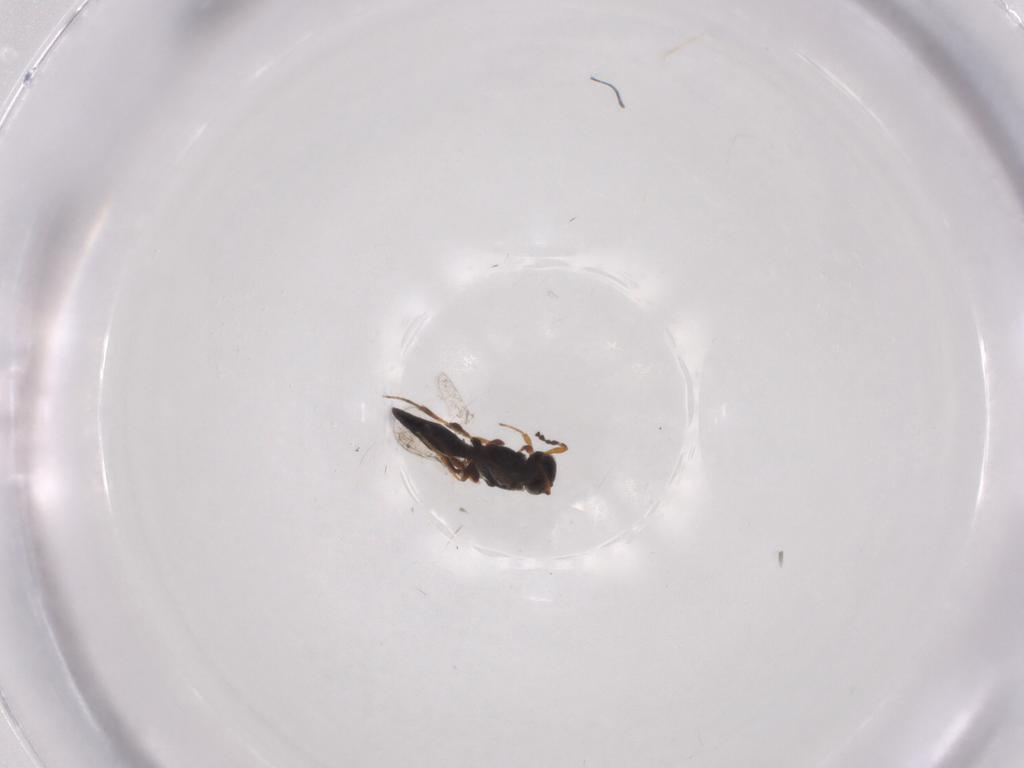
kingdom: Animalia
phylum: Arthropoda
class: Insecta
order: Hymenoptera
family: Platygastridae
